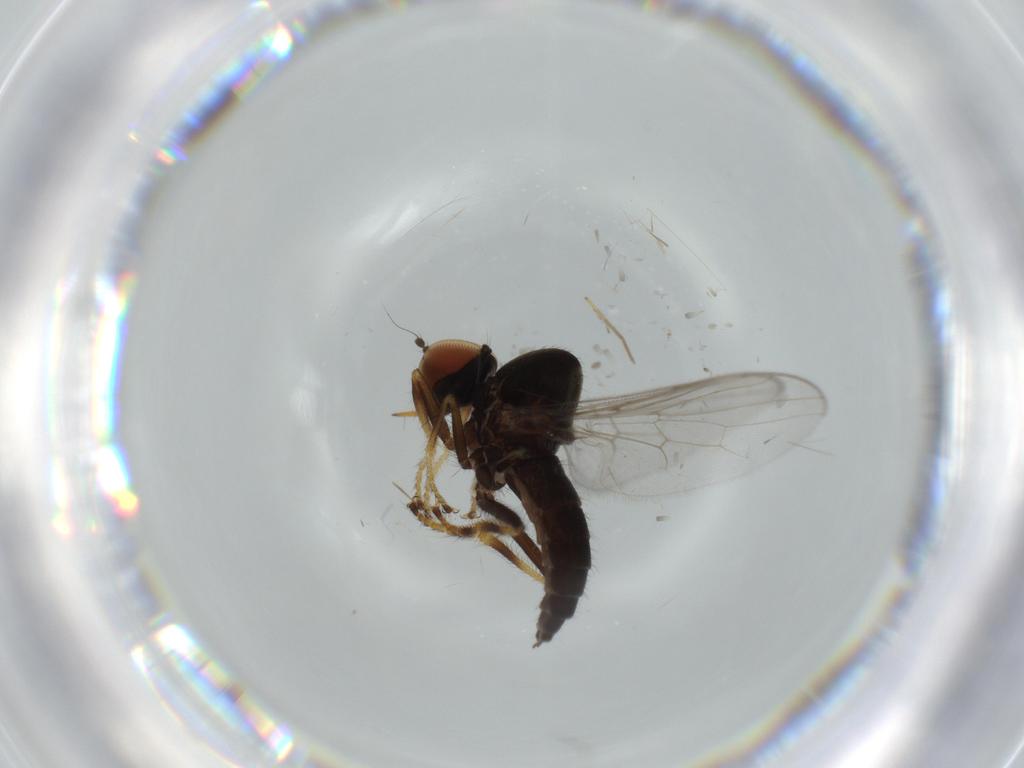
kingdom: Animalia
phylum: Arthropoda
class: Insecta
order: Diptera
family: Hybotidae
